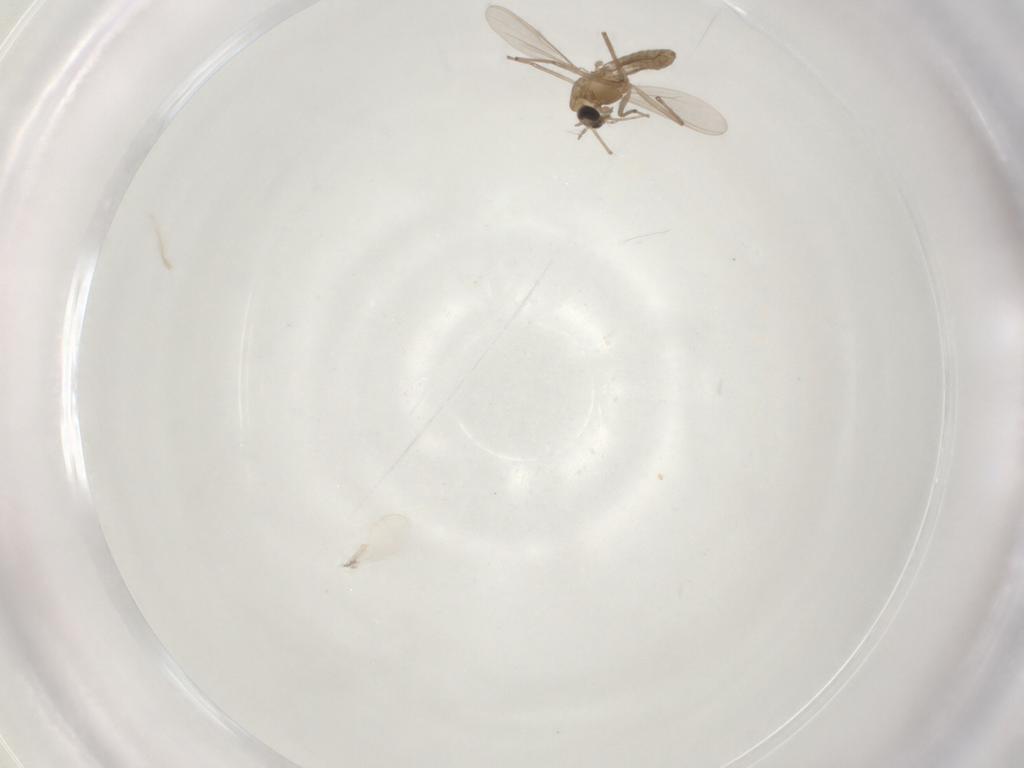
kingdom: Animalia
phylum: Arthropoda
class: Insecta
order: Diptera
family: Chironomidae
